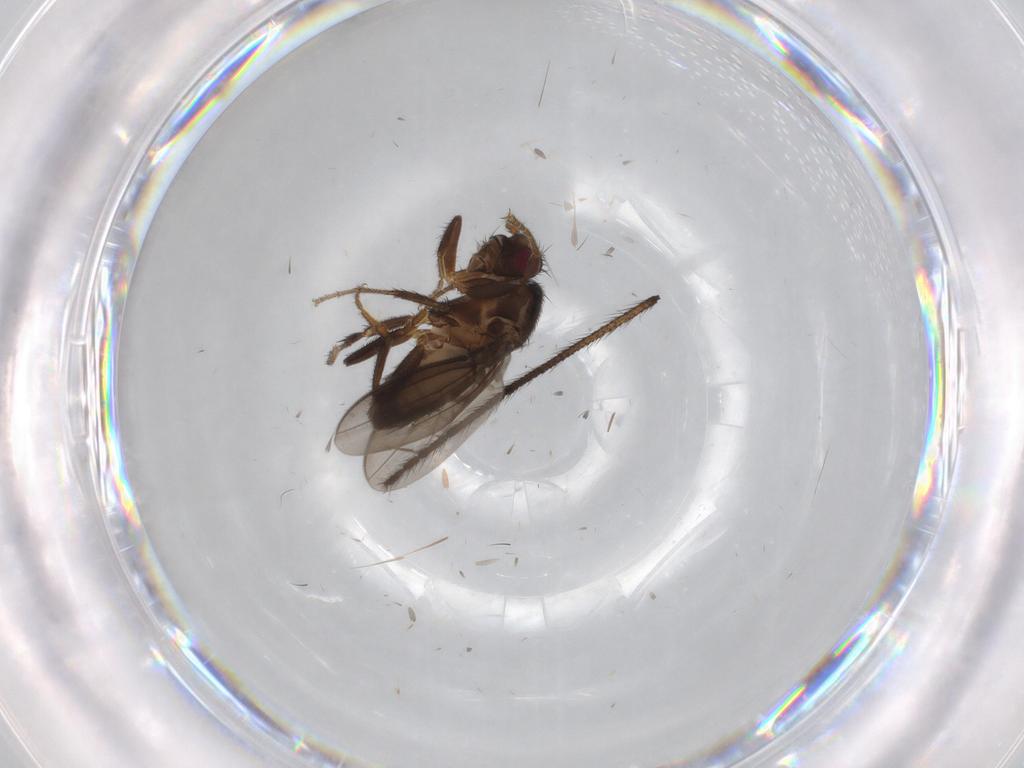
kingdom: Animalia
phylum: Arthropoda
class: Insecta
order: Diptera
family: Limoniidae
